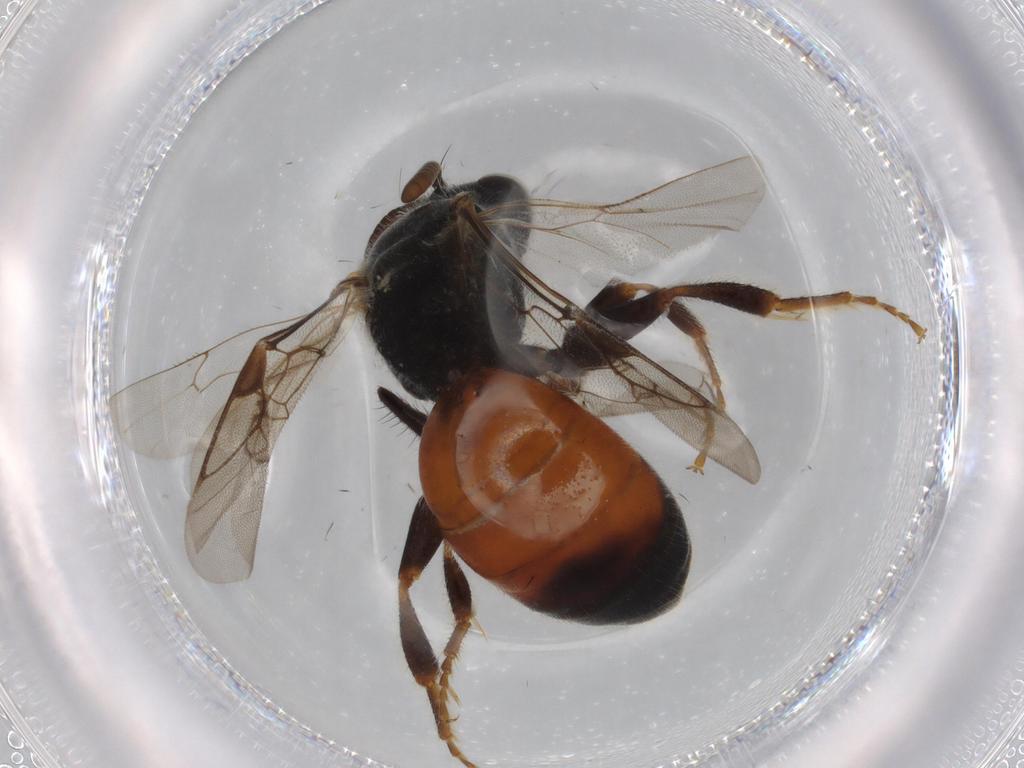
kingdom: Animalia
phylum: Arthropoda
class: Insecta
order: Hymenoptera
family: Halictidae
